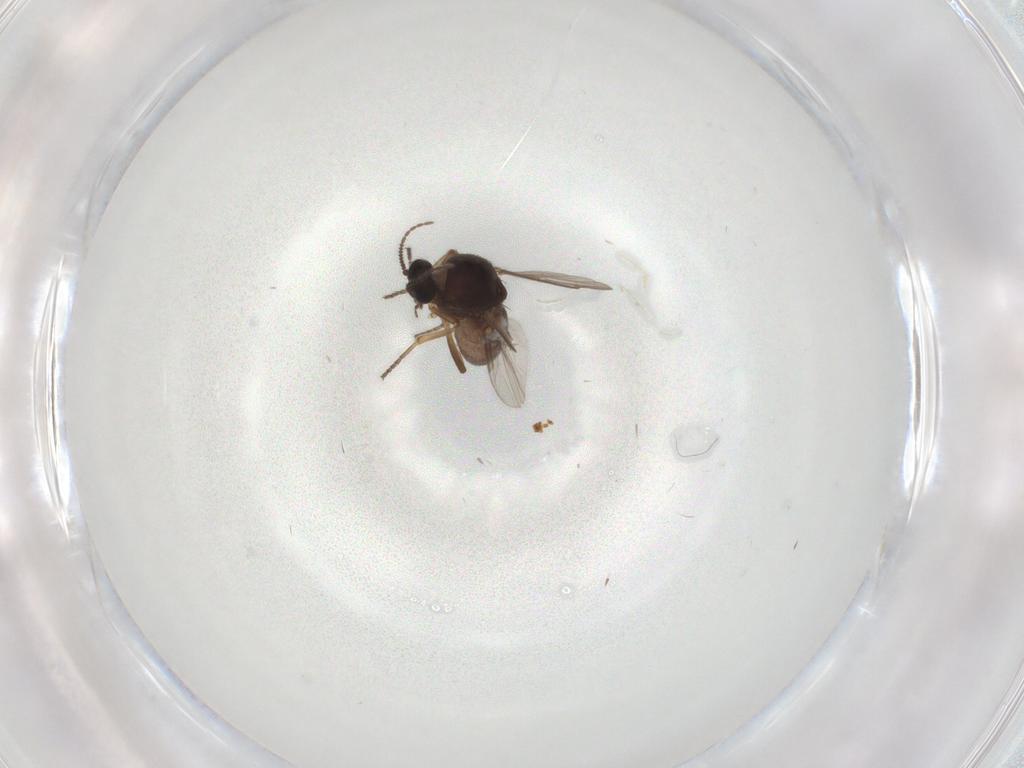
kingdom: Animalia
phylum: Arthropoda
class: Insecta
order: Diptera
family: Ceratopogonidae
